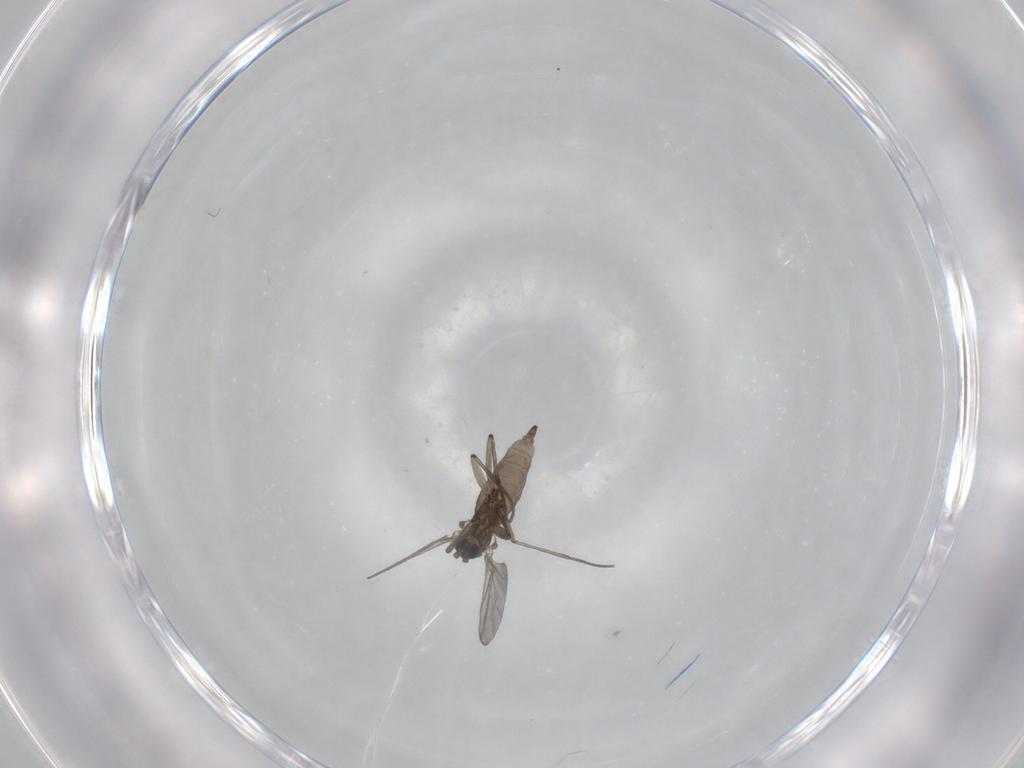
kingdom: Animalia
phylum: Arthropoda
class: Insecta
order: Diptera
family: Sciaridae
